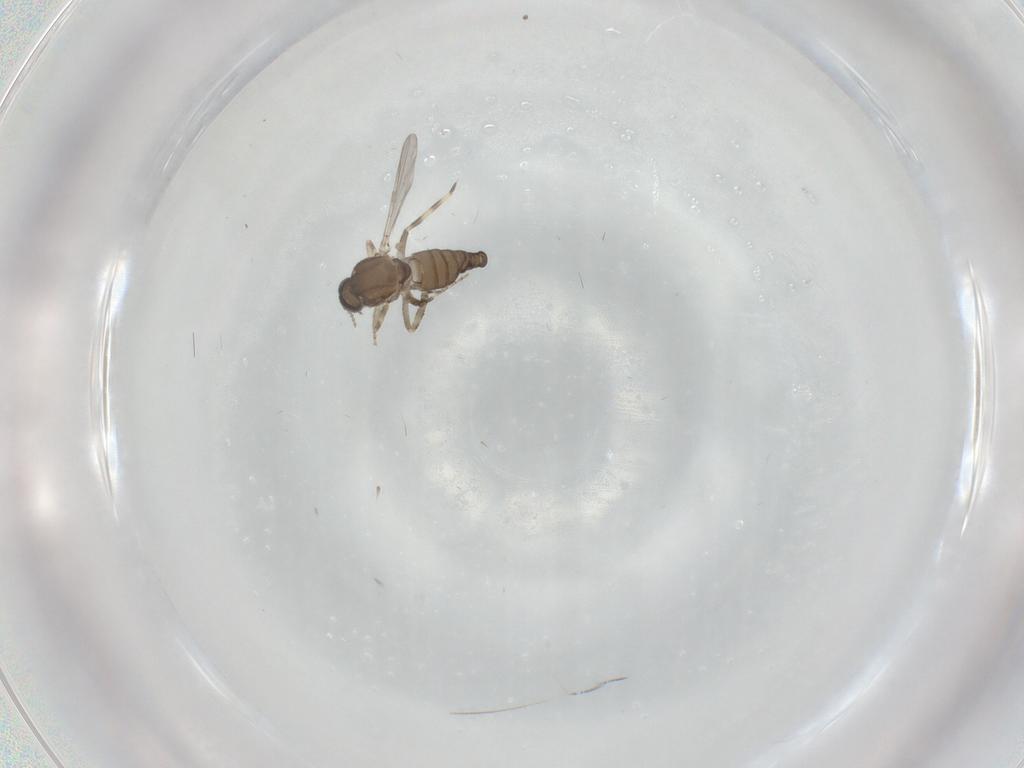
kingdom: Animalia
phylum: Arthropoda
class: Insecta
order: Diptera
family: Ceratopogonidae
